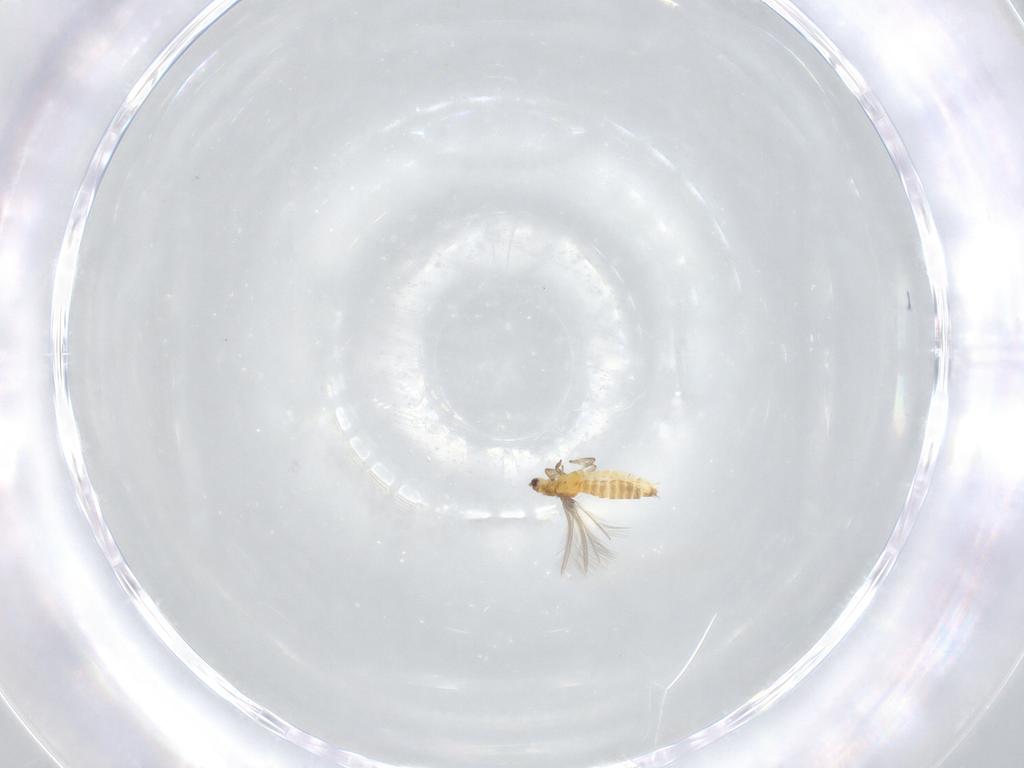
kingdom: Animalia
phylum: Arthropoda
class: Insecta
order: Thysanoptera
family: Thripidae
